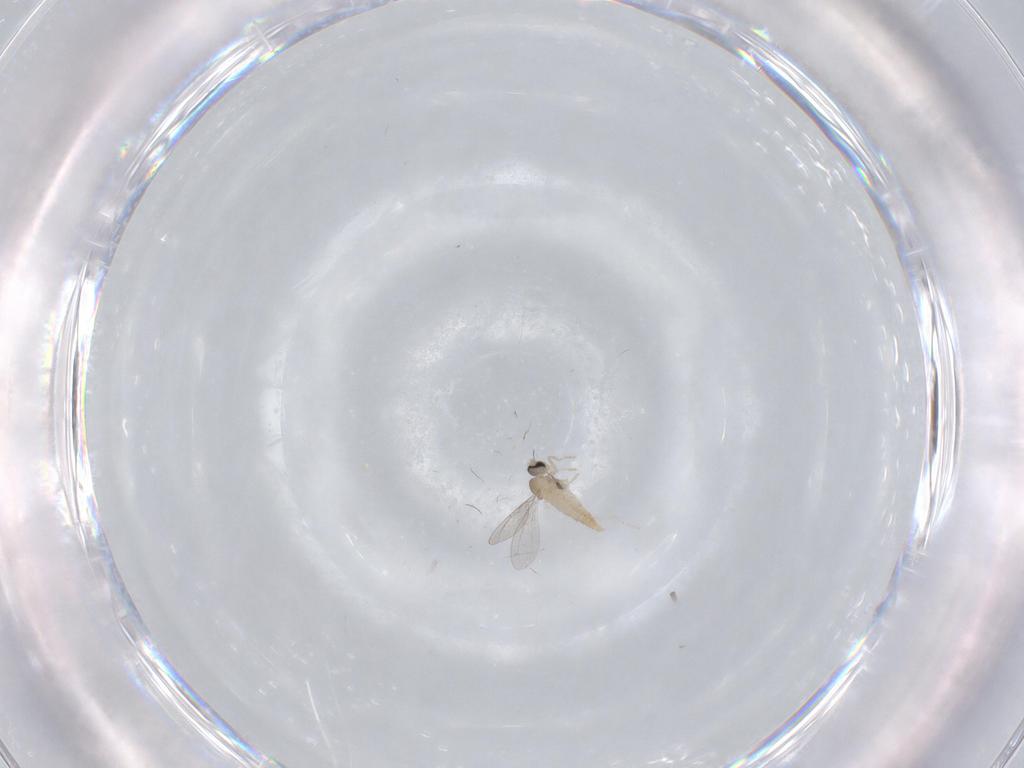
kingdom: Animalia
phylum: Arthropoda
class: Insecta
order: Diptera
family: Cecidomyiidae
